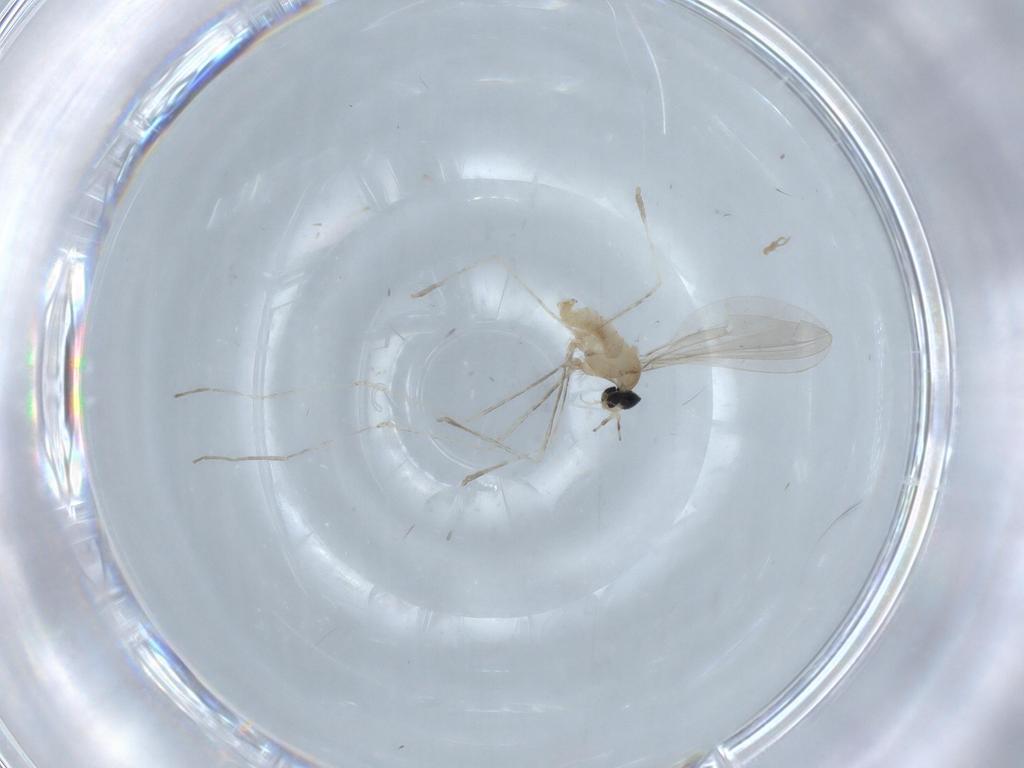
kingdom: Animalia
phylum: Arthropoda
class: Insecta
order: Diptera
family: Cecidomyiidae
